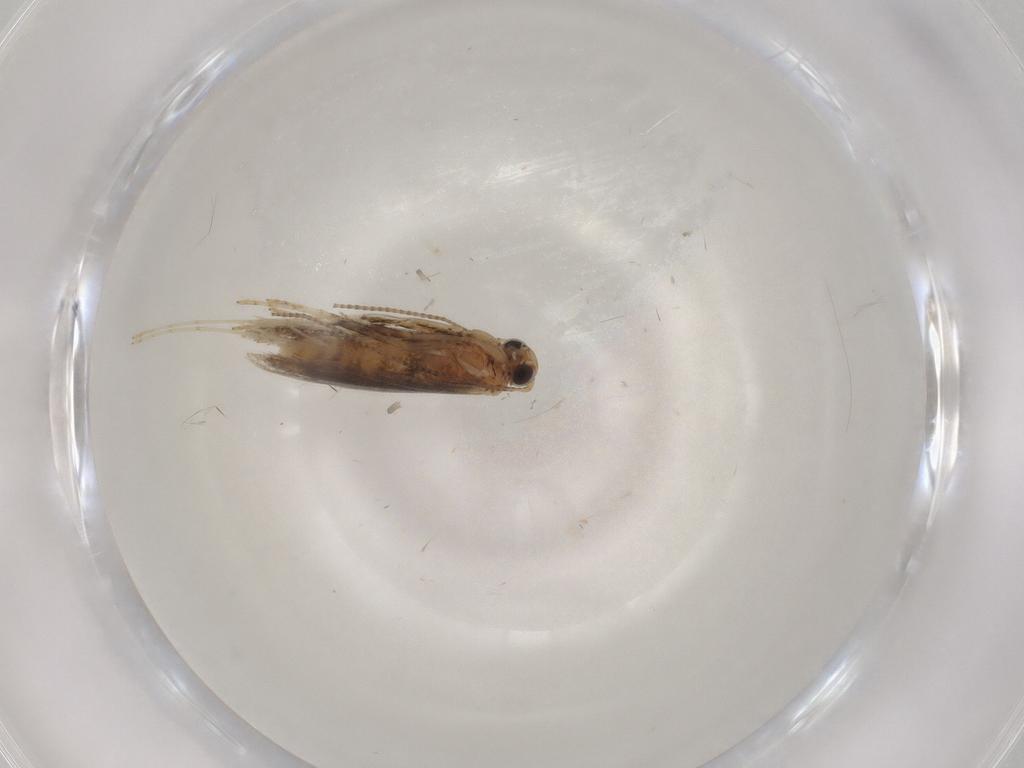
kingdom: Animalia
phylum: Arthropoda
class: Insecta
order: Lepidoptera
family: Gracillariidae
